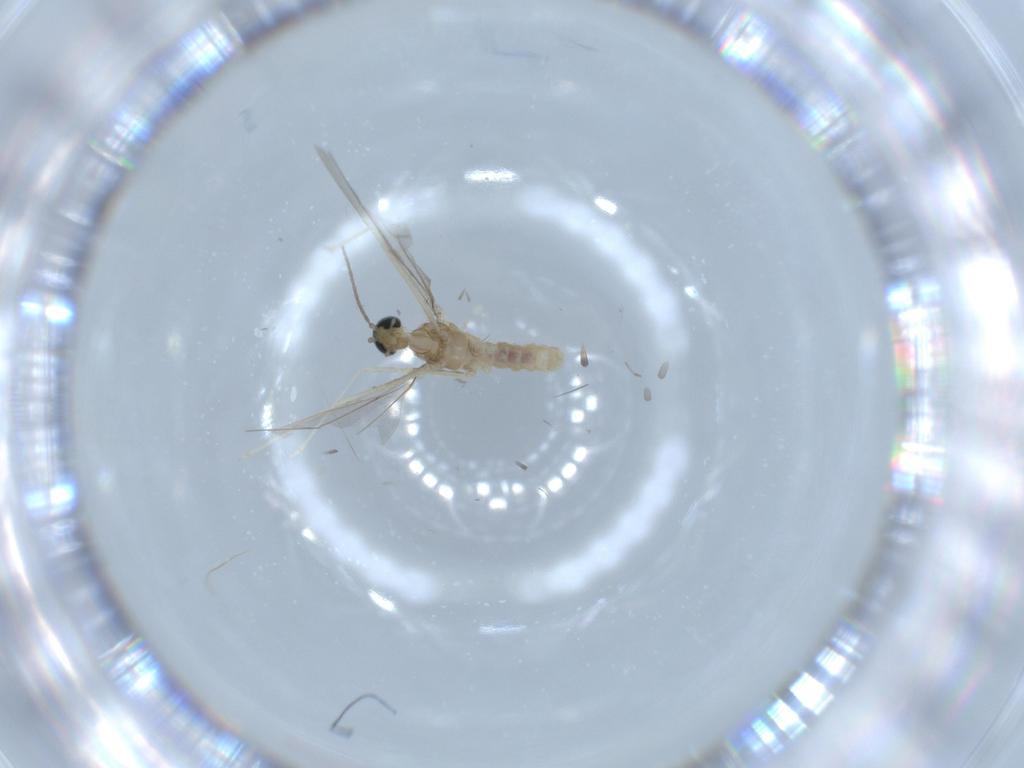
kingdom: Animalia
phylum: Arthropoda
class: Insecta
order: Diptera
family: Cecidomyiidae
